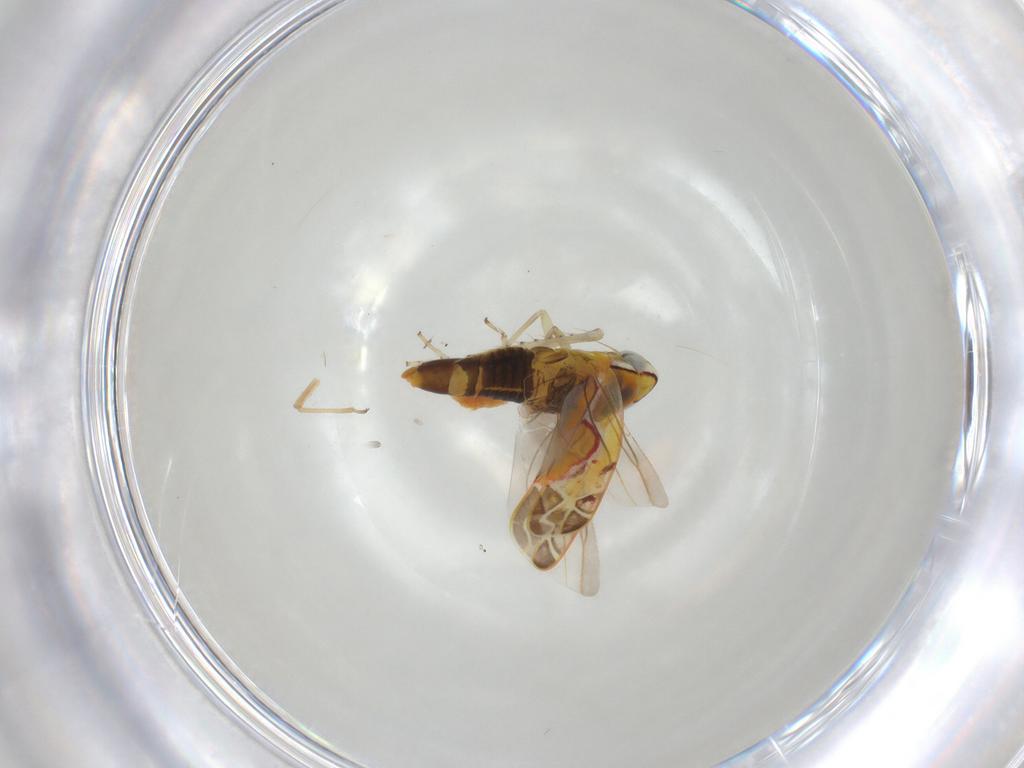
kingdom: Animalia
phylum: Arthropoda
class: Insecta
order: Hemiptera
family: Cicadellidae
